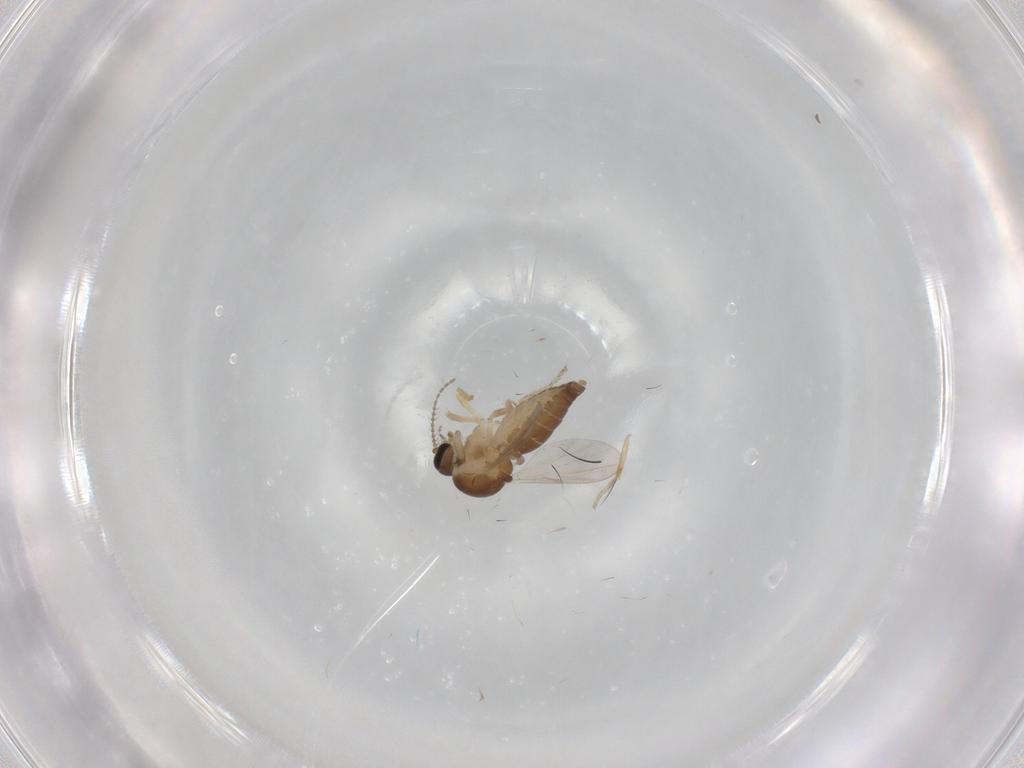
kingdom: Animalia
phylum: Arthropoda
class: Insecta
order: Diptera
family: Ceratopogonidae
